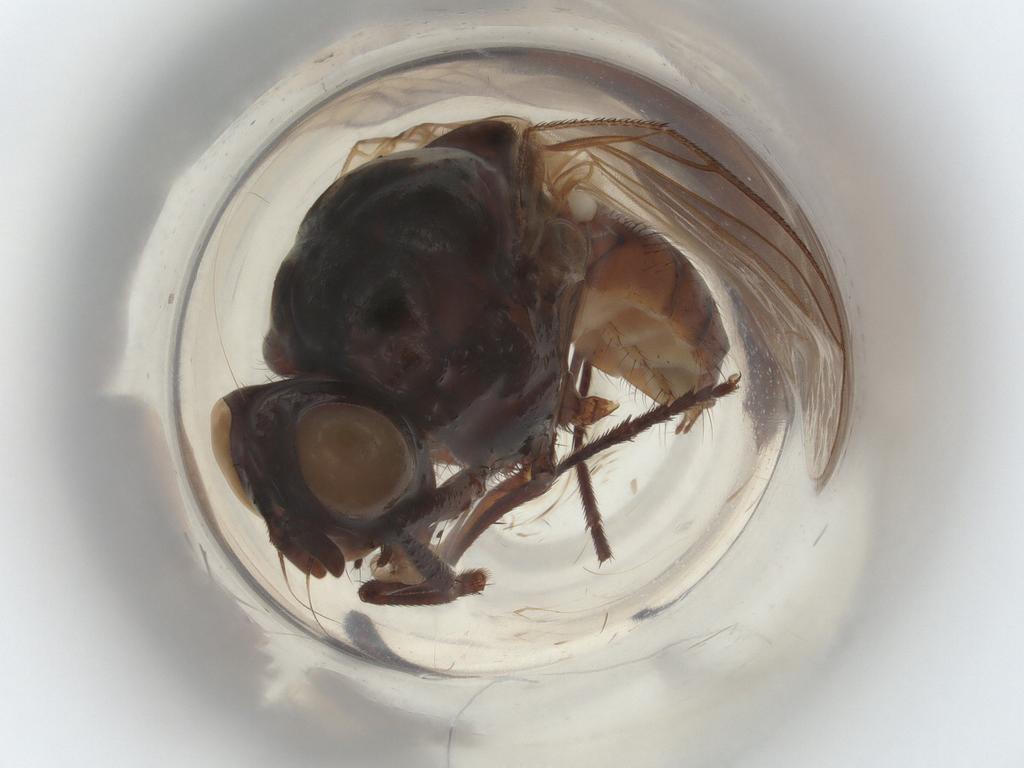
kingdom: Animalia
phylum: Arthropoda
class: Insecta
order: Diptera
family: Anthomyiidae
